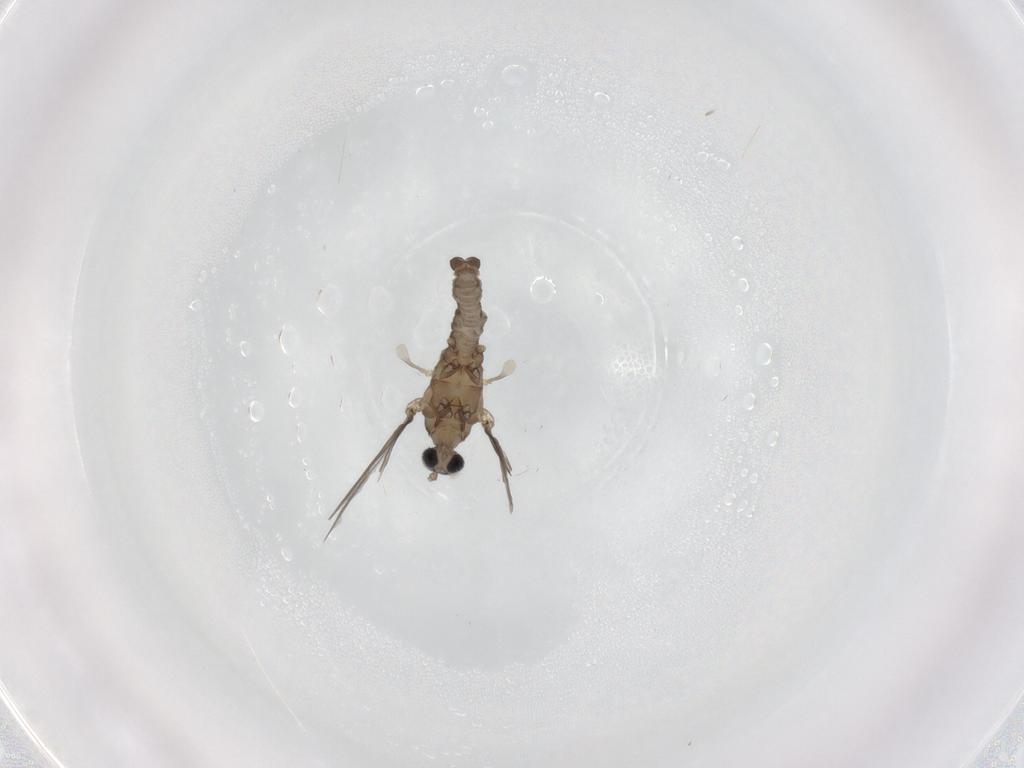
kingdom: Animalia
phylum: Arthropoda
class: Insecta
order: Diptera
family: Cecidomyiidae
